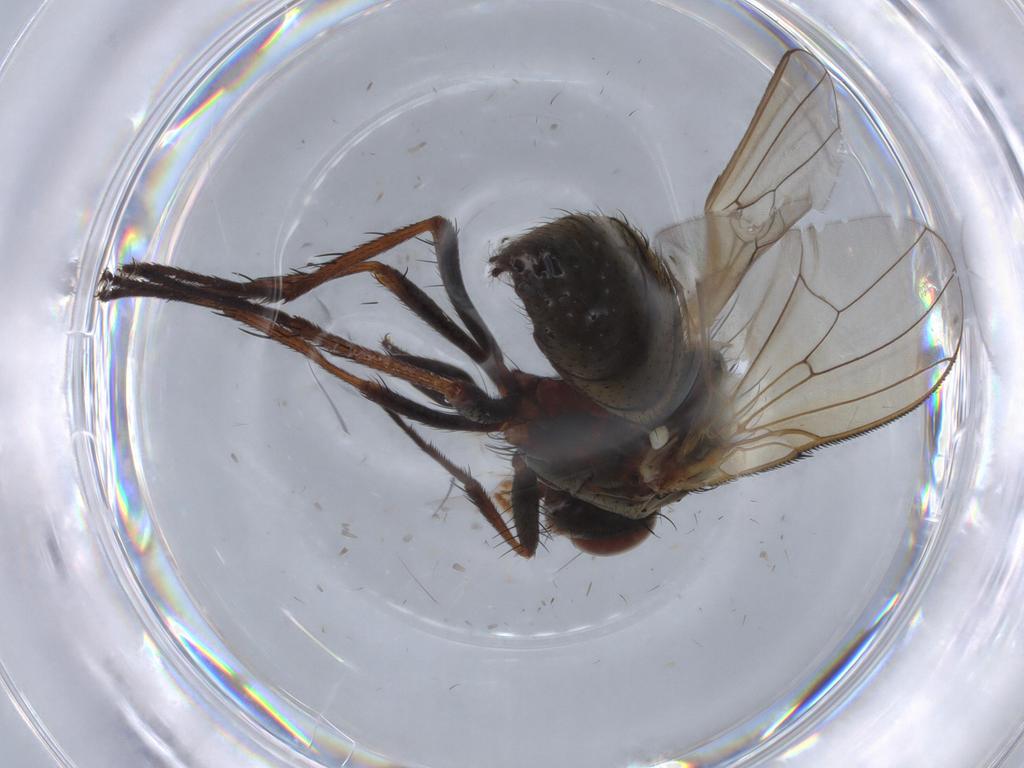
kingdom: Animalia
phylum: Arthropoda
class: Insecta
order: Diptera
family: Anthomyiidae
